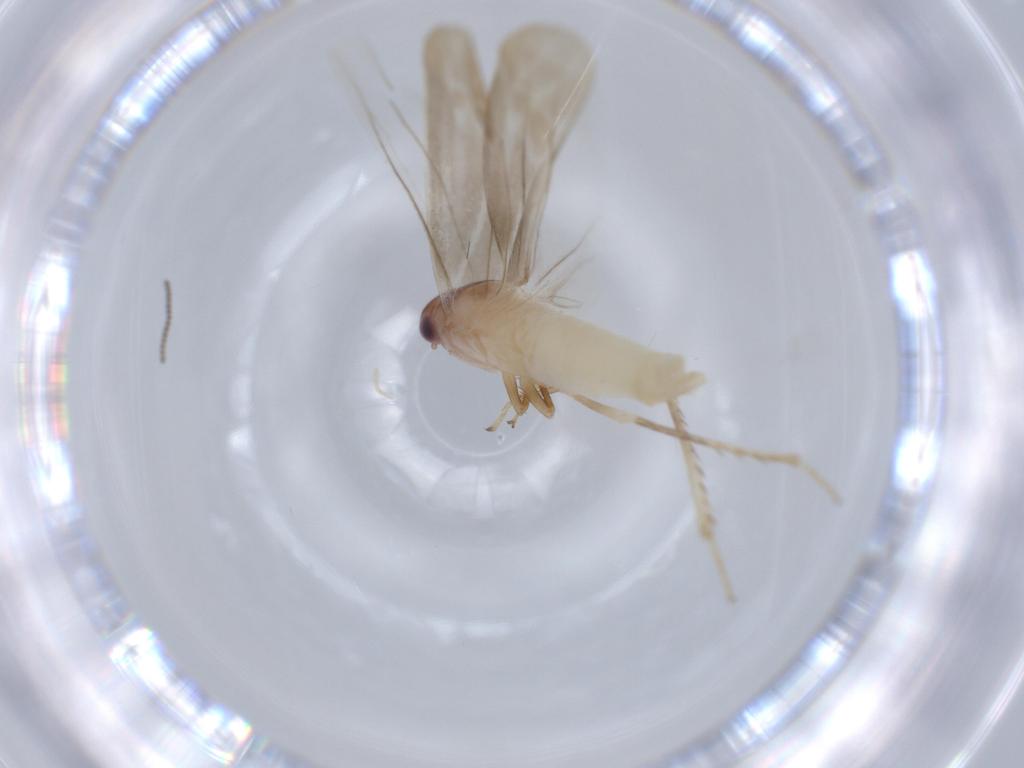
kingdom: Animalia
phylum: Arthropoda
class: Insecta
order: Hemiptera
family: Cicadellidae
